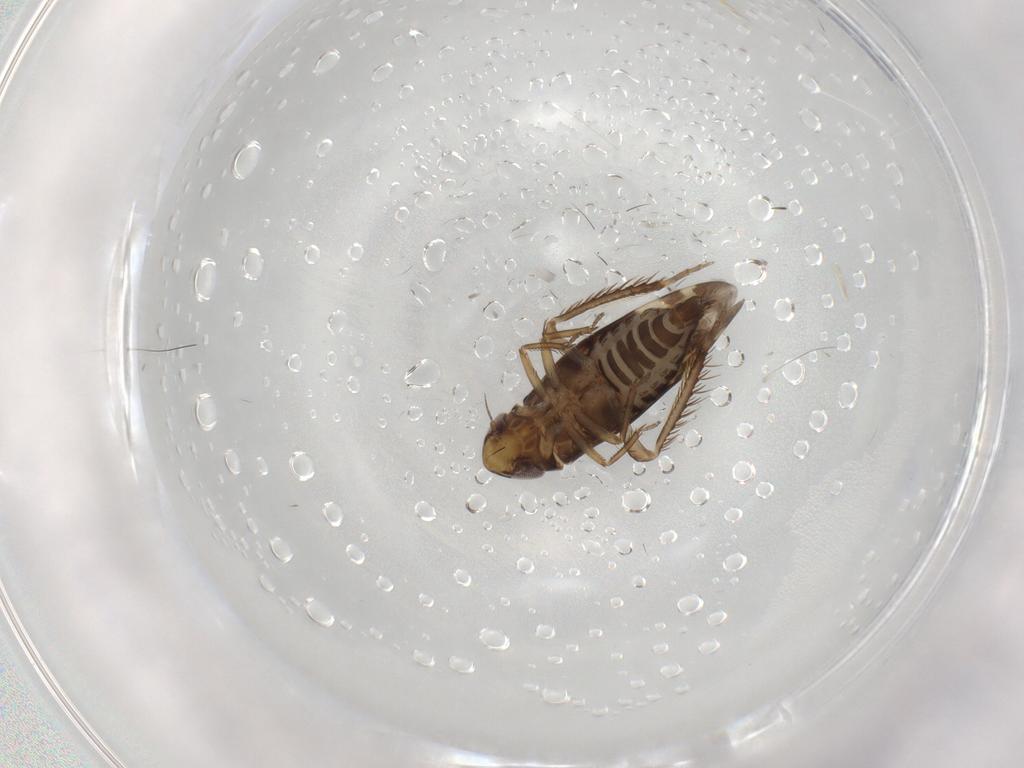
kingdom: Animalia
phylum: Arthropoda
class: Insecta
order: Hemiptera
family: Cicadellidae
